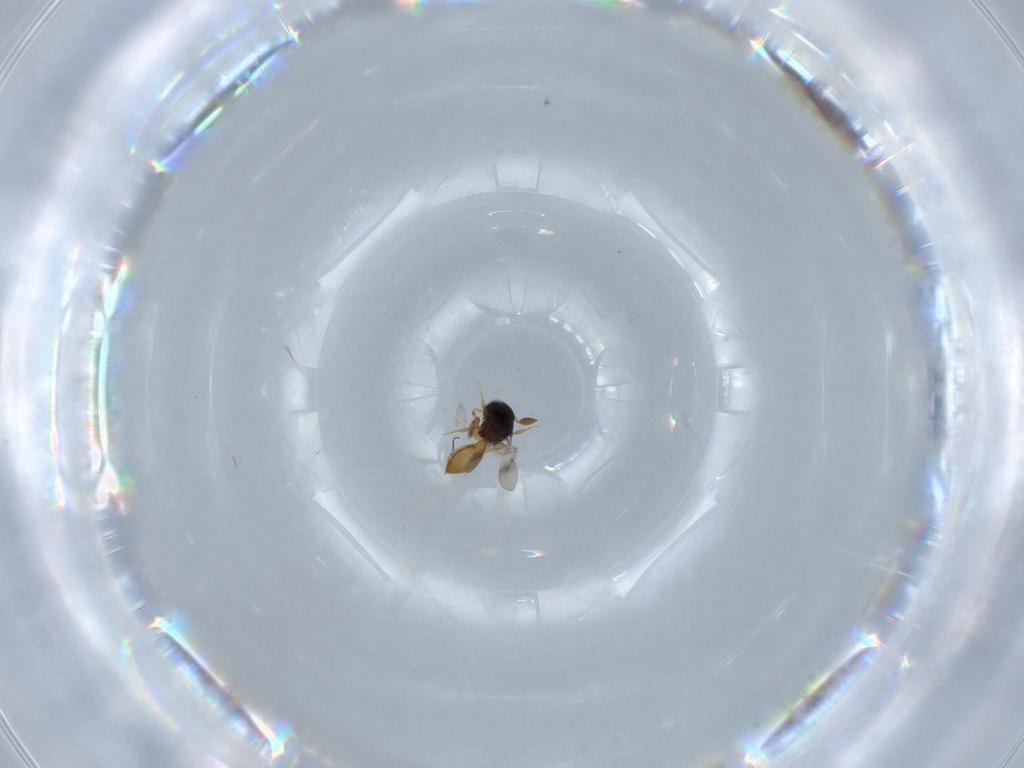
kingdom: Animalia
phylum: Arthropoda
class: Insecta
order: Hymenoptera
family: Scelionidae
